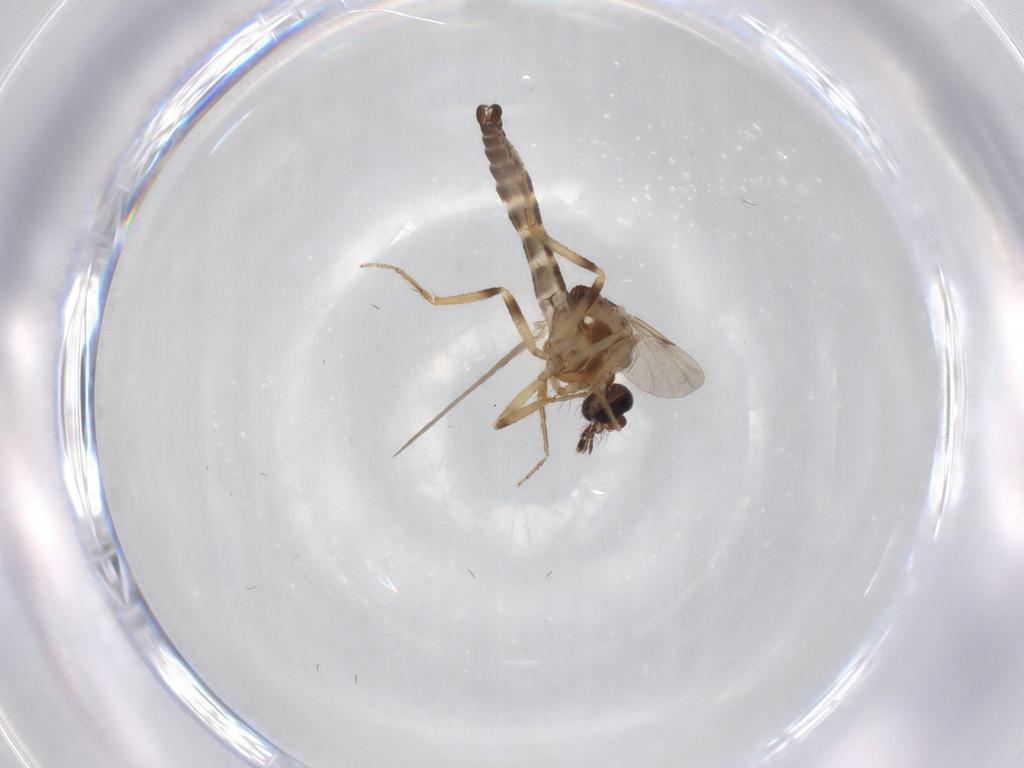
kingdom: Animalia
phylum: Arthropoda
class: Insecta
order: Diptera
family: Ceratopogonidae
